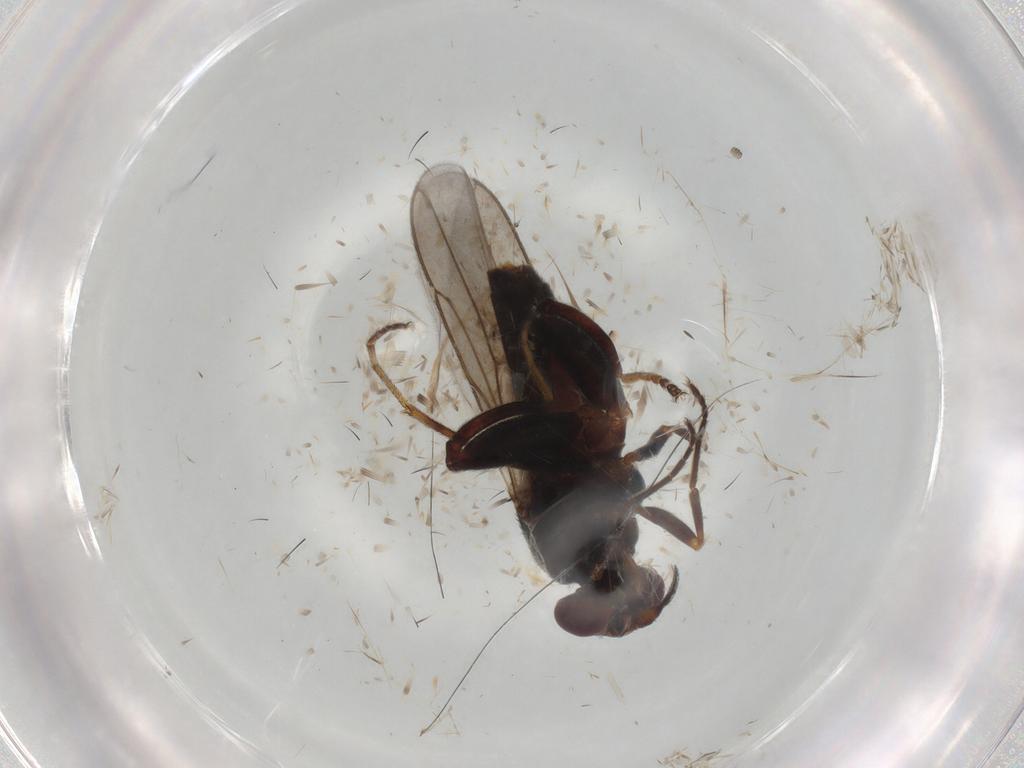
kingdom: Animalia
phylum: Arthropoda
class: Insecta
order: Diptera
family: Chloropidae
